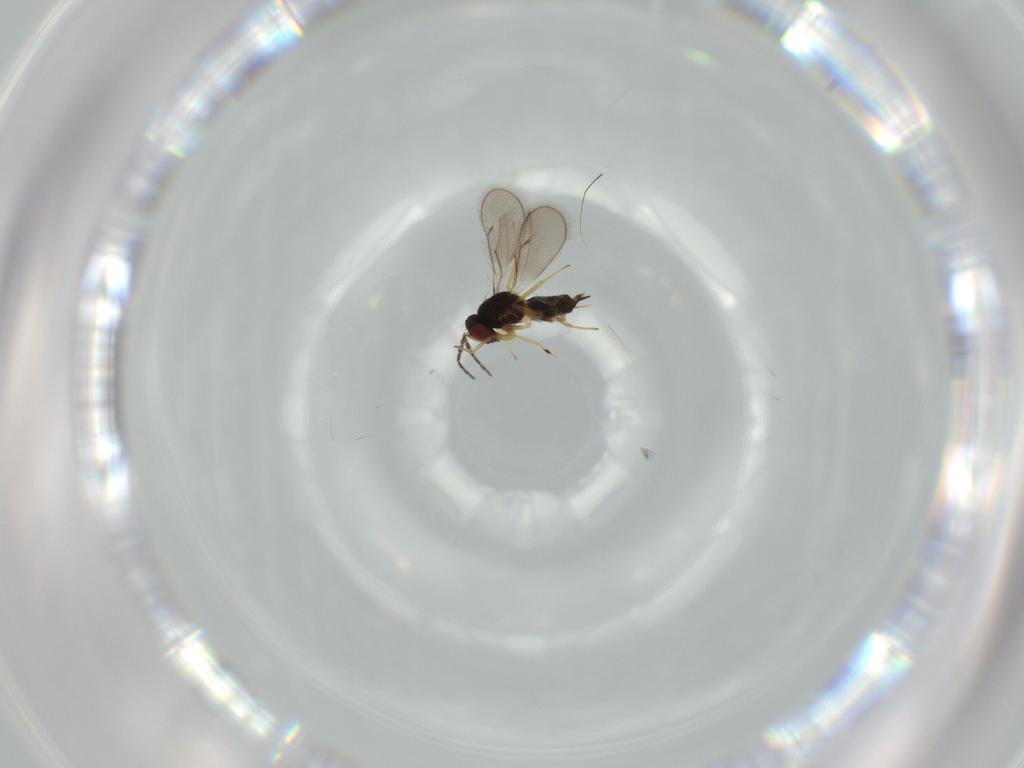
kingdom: Animalia
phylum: Arthropoda
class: Insecta
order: Hymenoptera
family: Eulophidae
